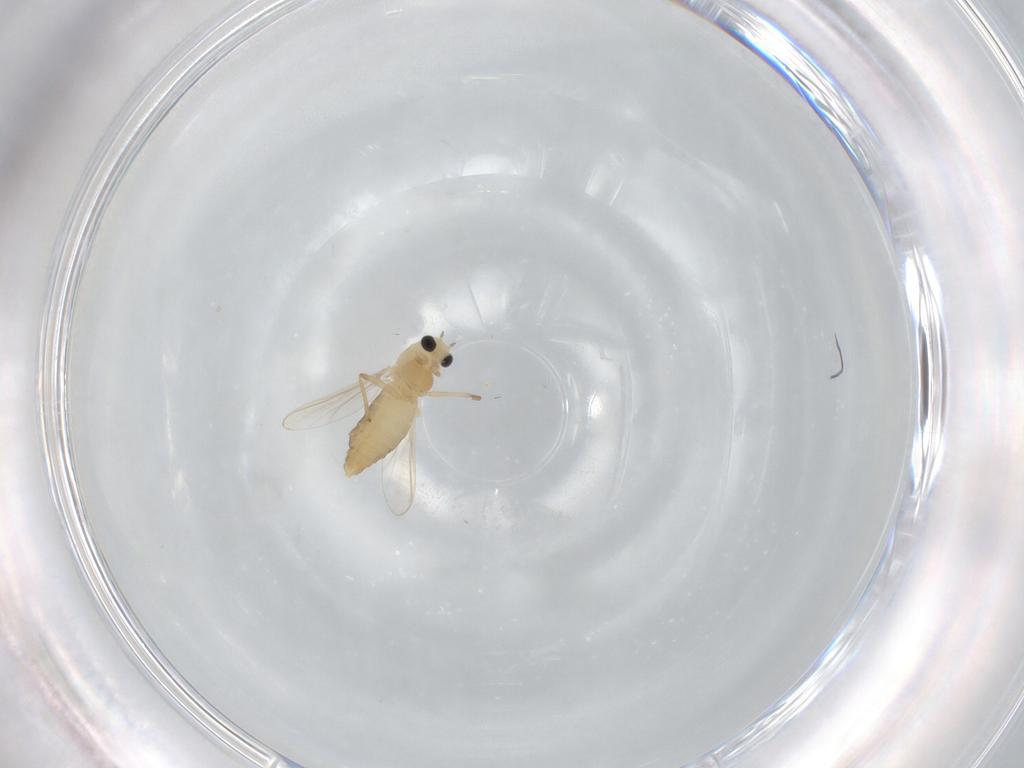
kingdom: Animalia
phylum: Arthropoda
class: Insecta
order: Diptera
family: Chironomidae
